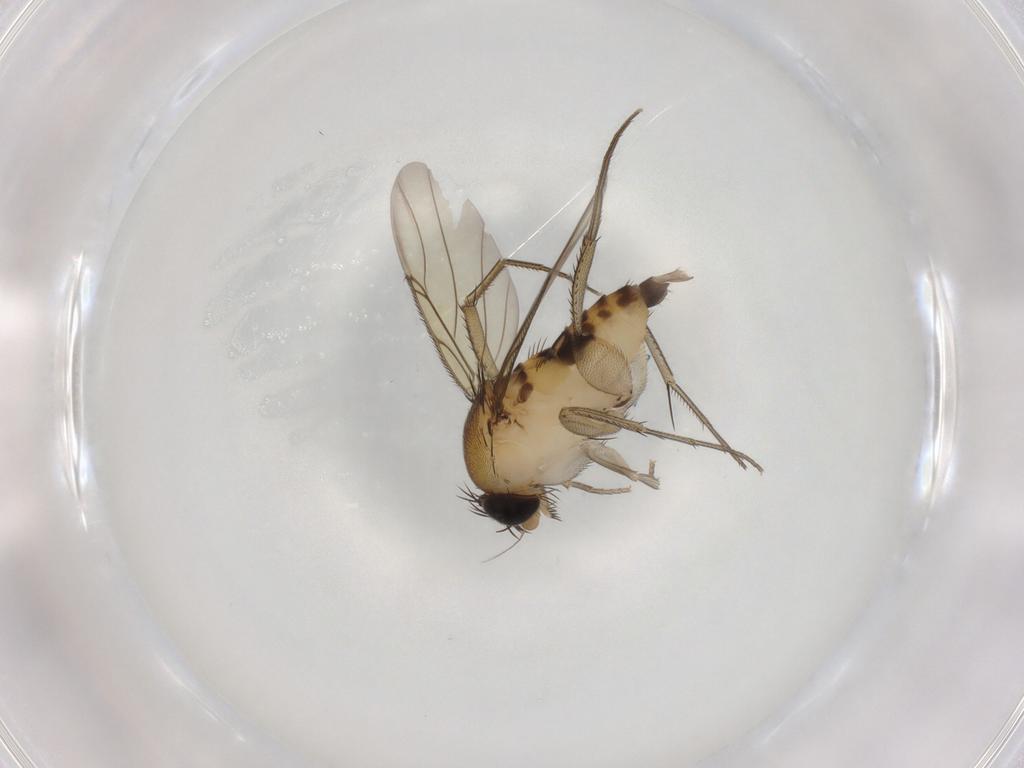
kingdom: Animalia
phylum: Arthropoda
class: Insecta
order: Diptera
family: Phoridae
